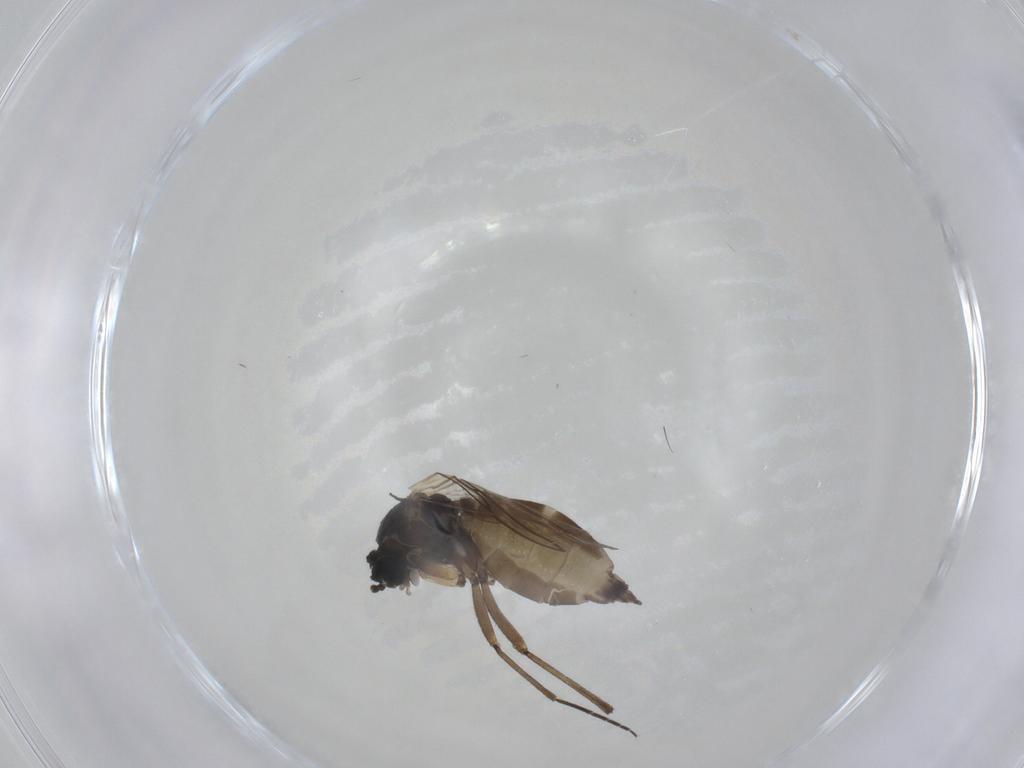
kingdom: Animalia
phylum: Arthropoda
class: Insecta
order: Diptera
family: Sciaridae
